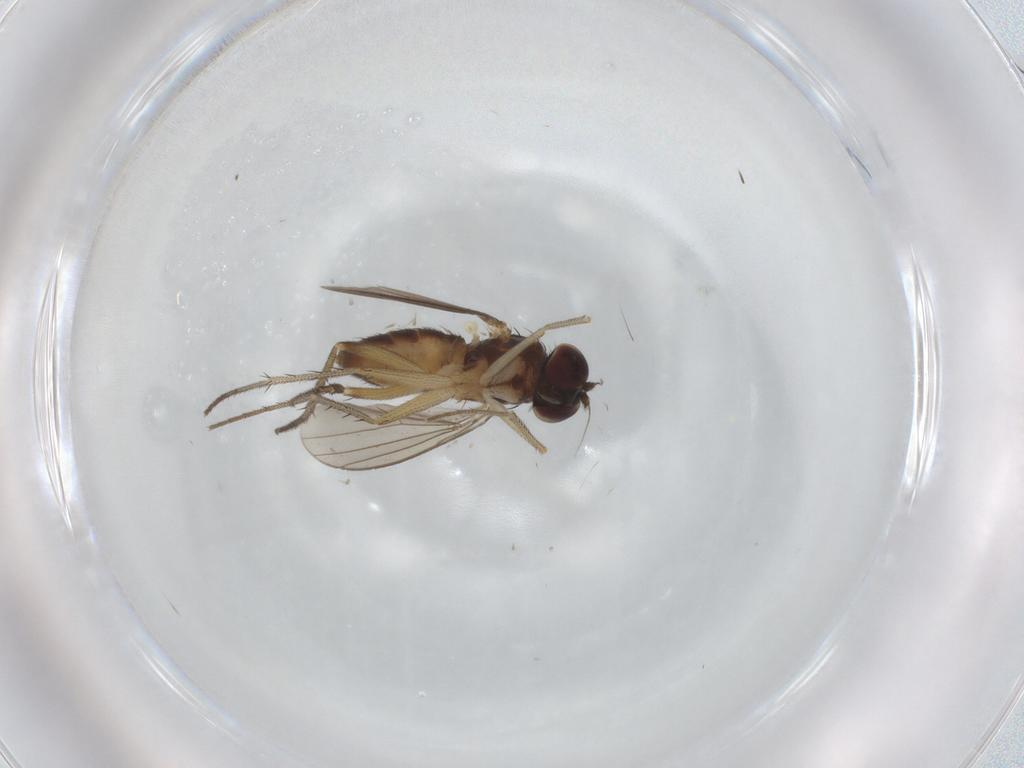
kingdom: Animalia
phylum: Arthropoda
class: Insecta
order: Diptera
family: Dolichopodidae
